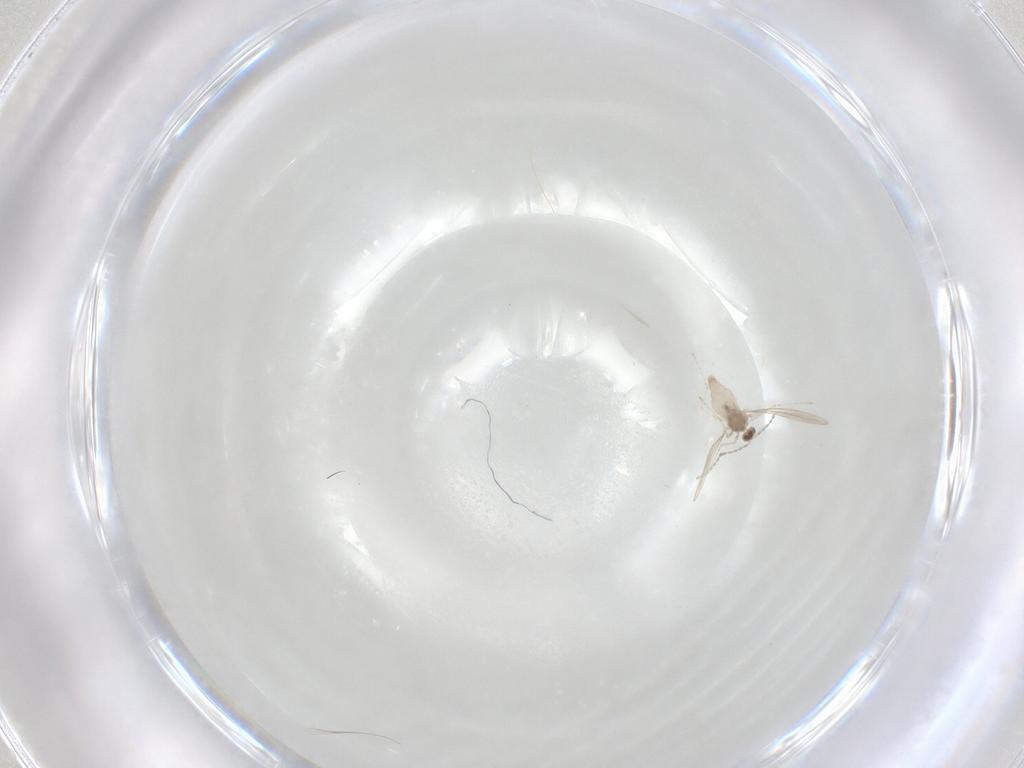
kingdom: Animalia
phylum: Arthropoda
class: Insecta
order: Diptera
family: Cecidomyiidae
